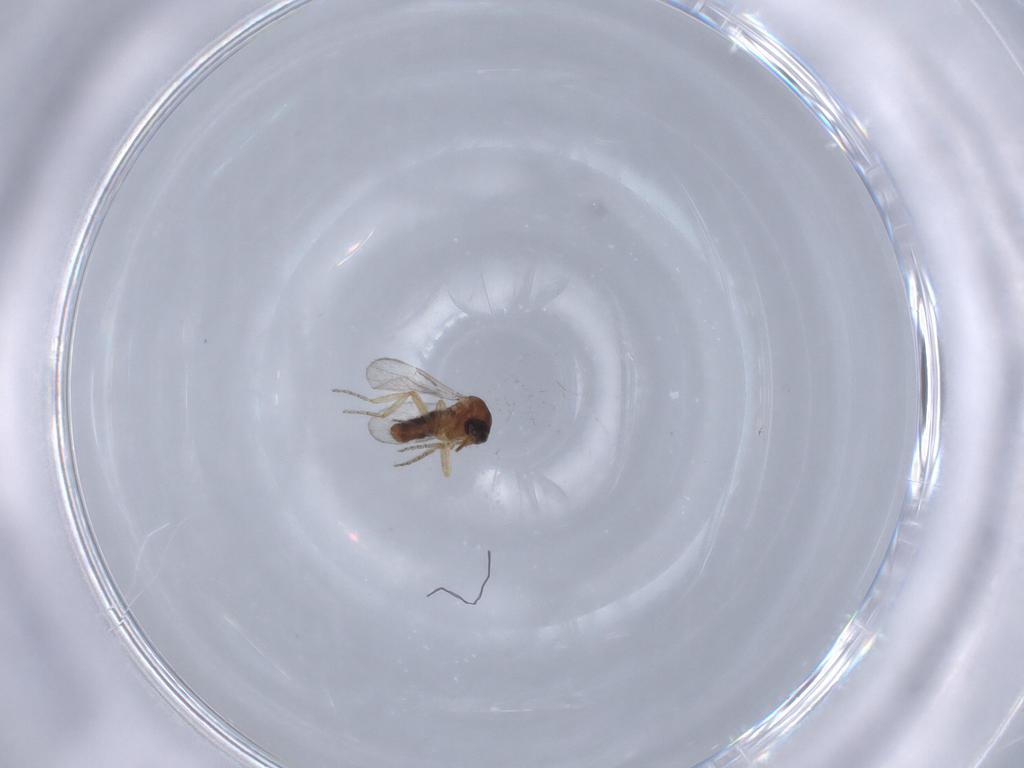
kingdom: Animalia
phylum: Arthropoda
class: Insecta
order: Diptera
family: Ceratopogonidae
